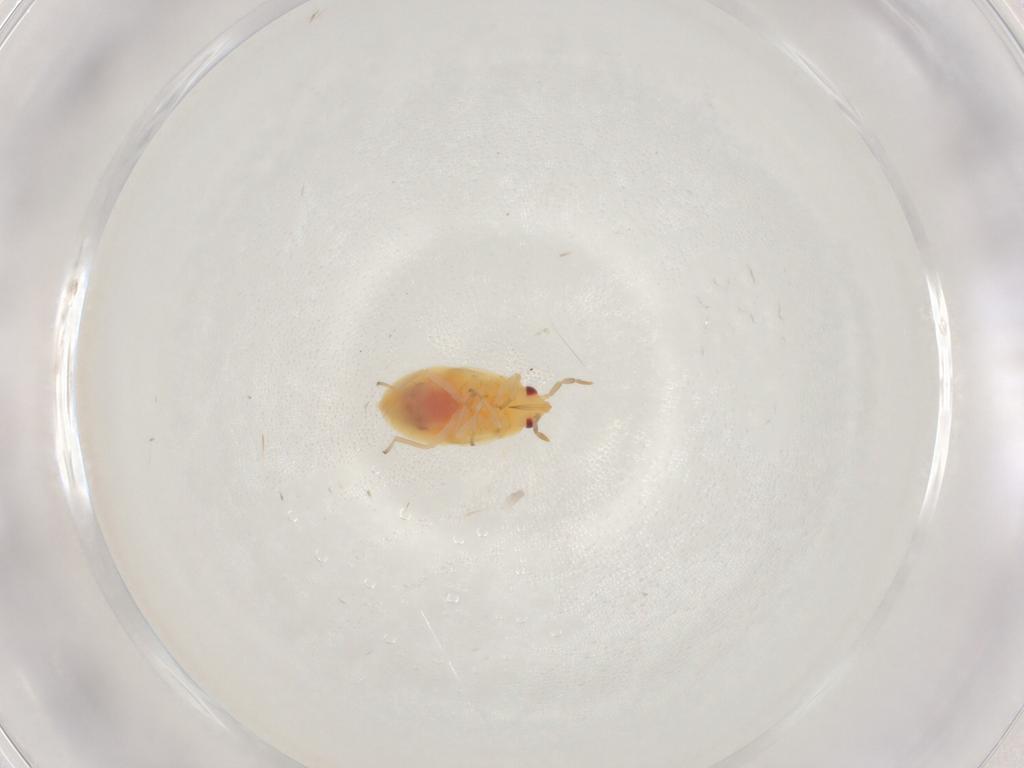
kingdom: Animalia
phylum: Arthropoda
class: Insecta
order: Hemiptera
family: Anthocoridae
